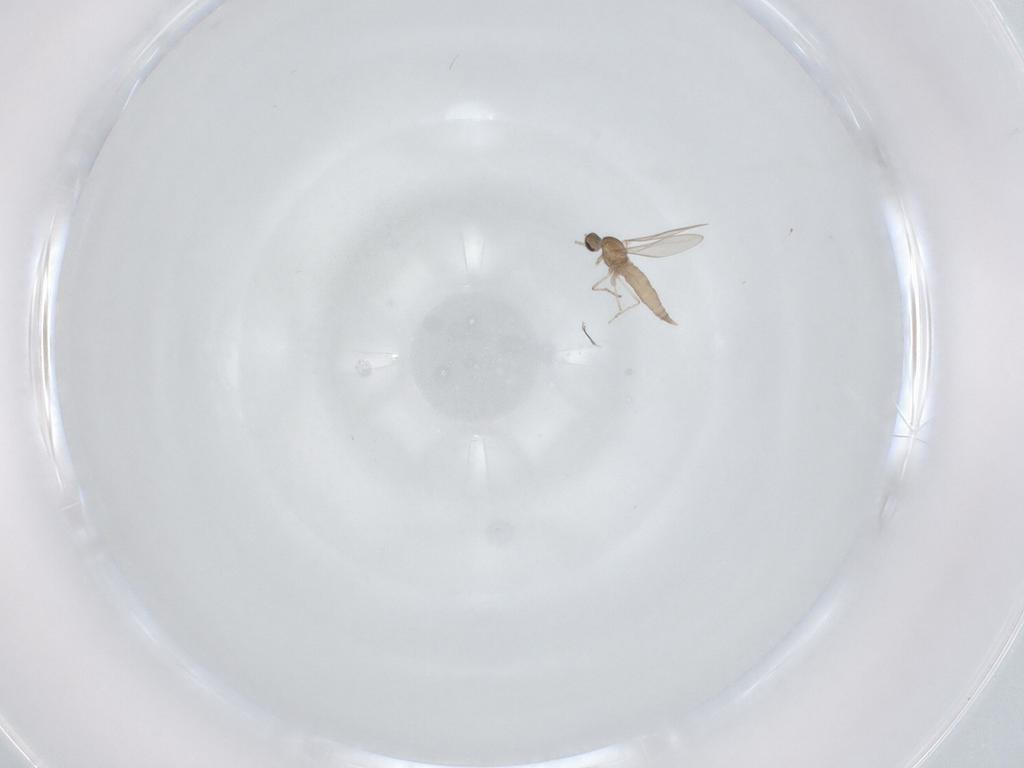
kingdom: Animalia
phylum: Arthropoda
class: Insecta
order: Diptera
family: Cecidomyiidae
